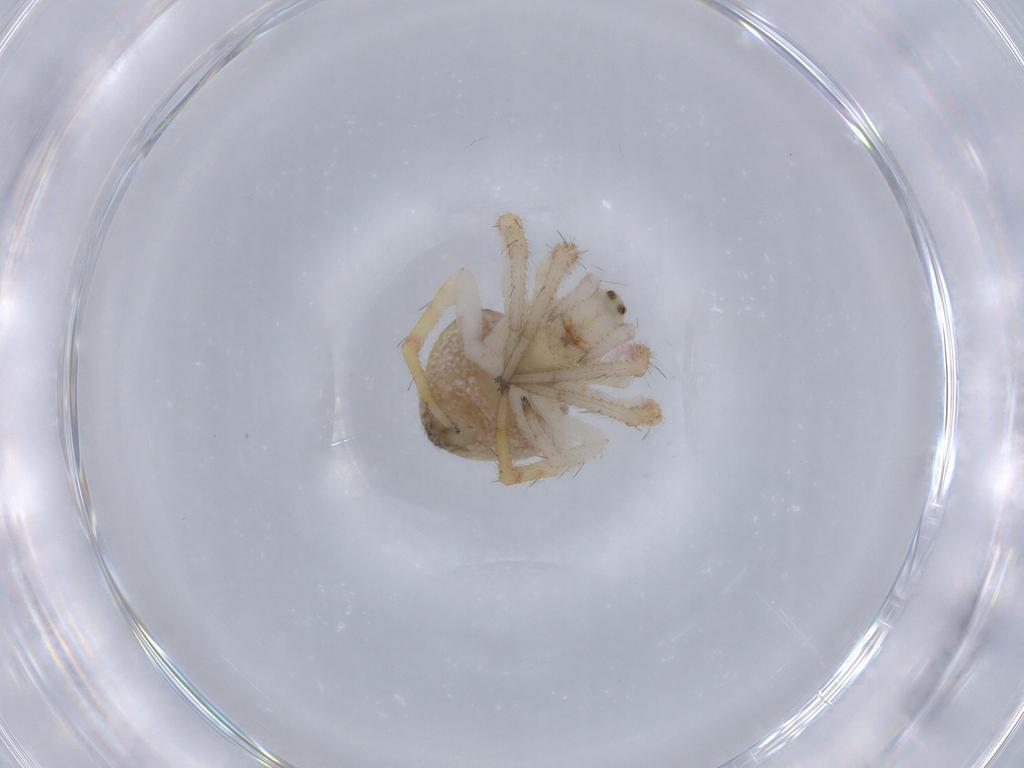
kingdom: Animalia
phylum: Arthropoda
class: Arachnida
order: Araneae
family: Araneidae
